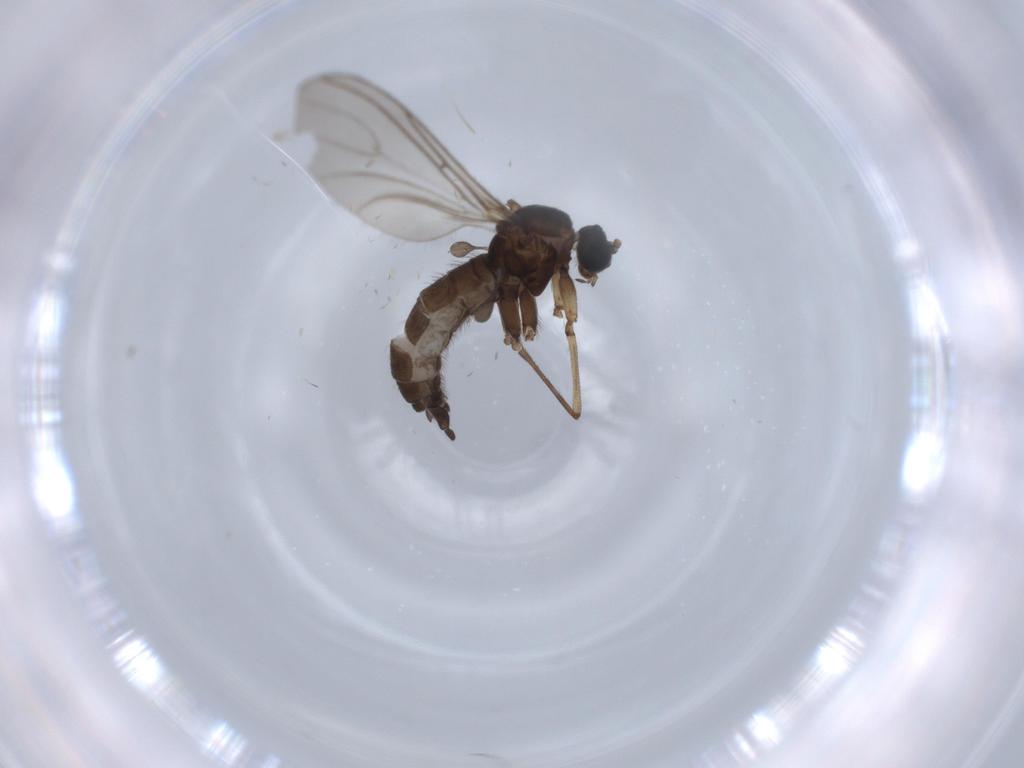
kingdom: Animalia
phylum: Arthropoda
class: Insecta
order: Diptera
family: Sciaridae
